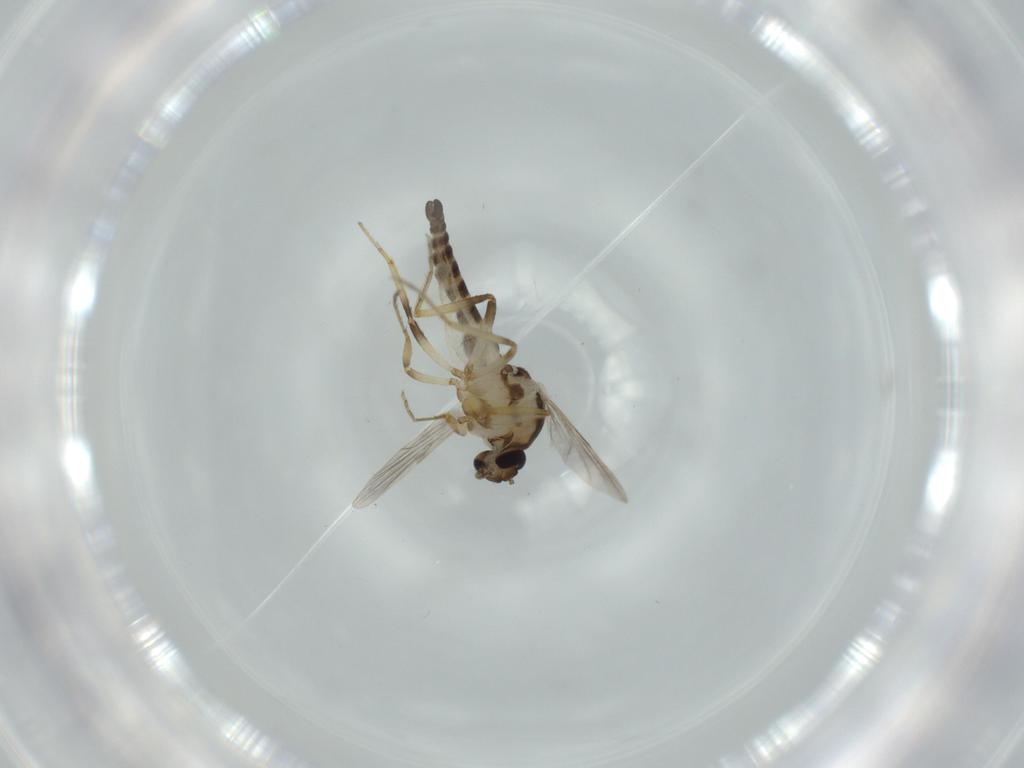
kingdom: Animalia
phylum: Arthropoda
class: Insecta
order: Diptera
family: Ceratopogonidae
